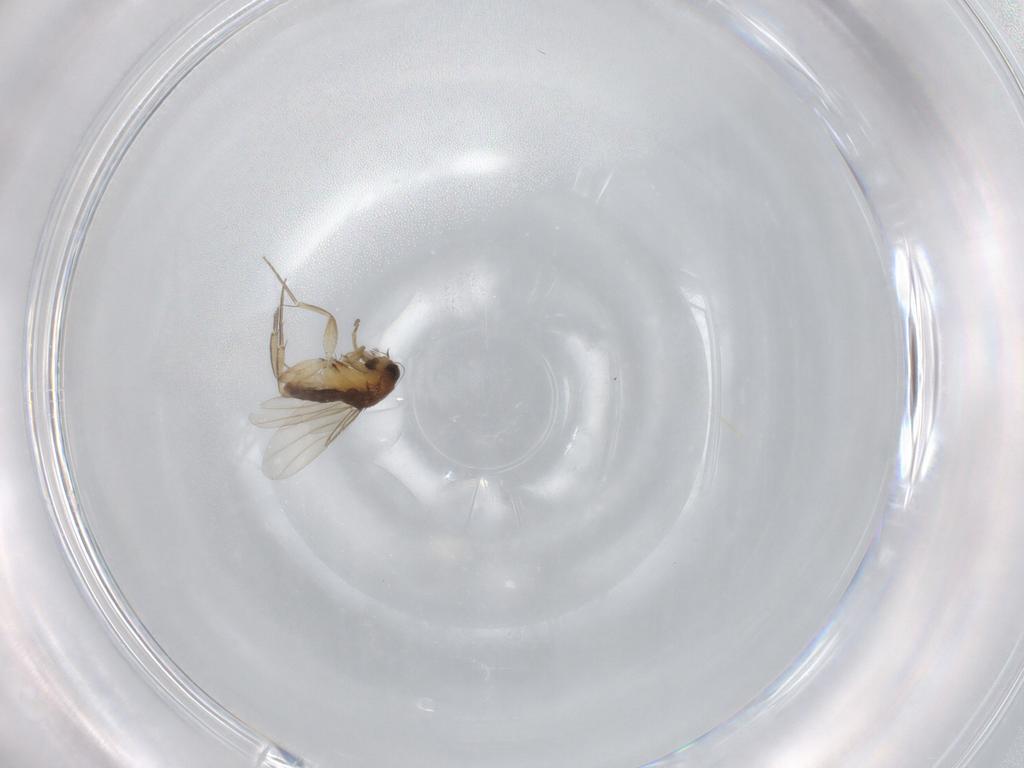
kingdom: Animalia
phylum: Arthropoda
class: Insecta
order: Diptera
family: Phoridae
